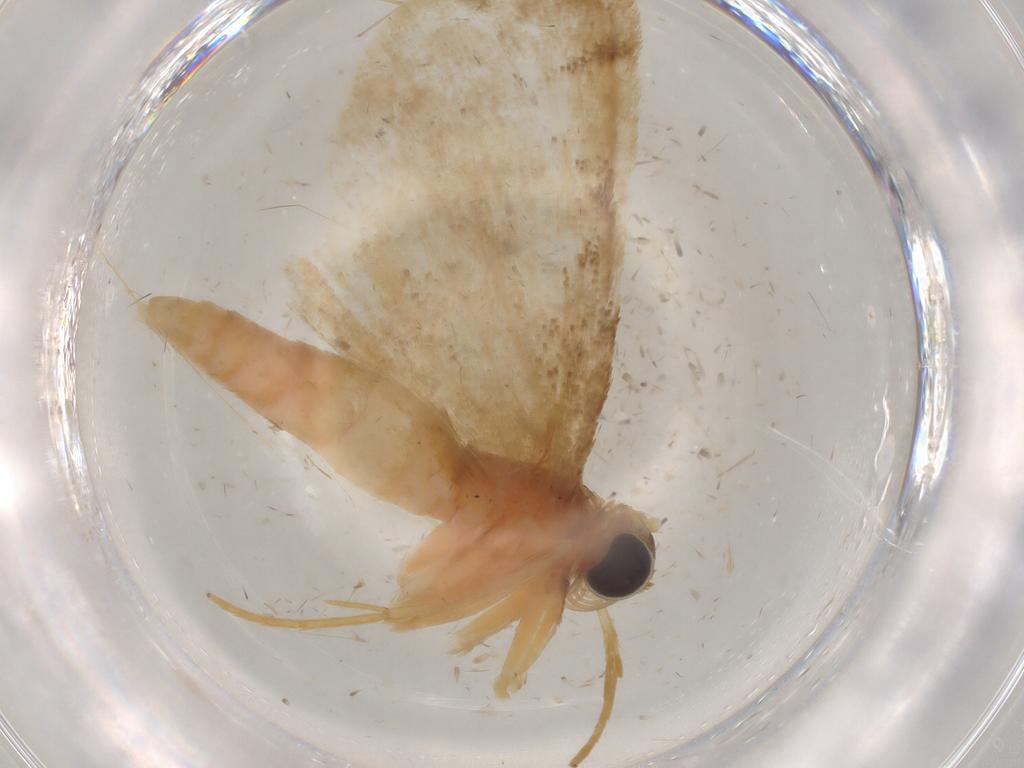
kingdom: Animalia
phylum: Arthropoda
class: Insecta
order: Lepidoptera
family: Geometridae
